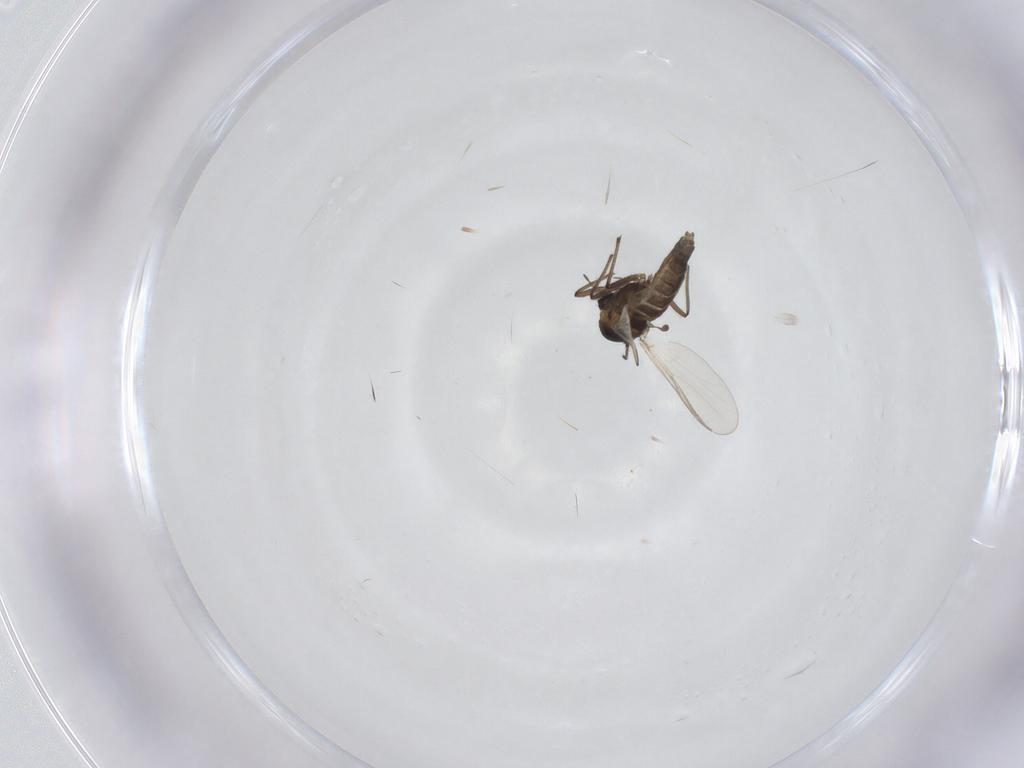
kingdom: Animalia
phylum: Arthropoda
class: Insecta
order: Diptera
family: Chironomidae
